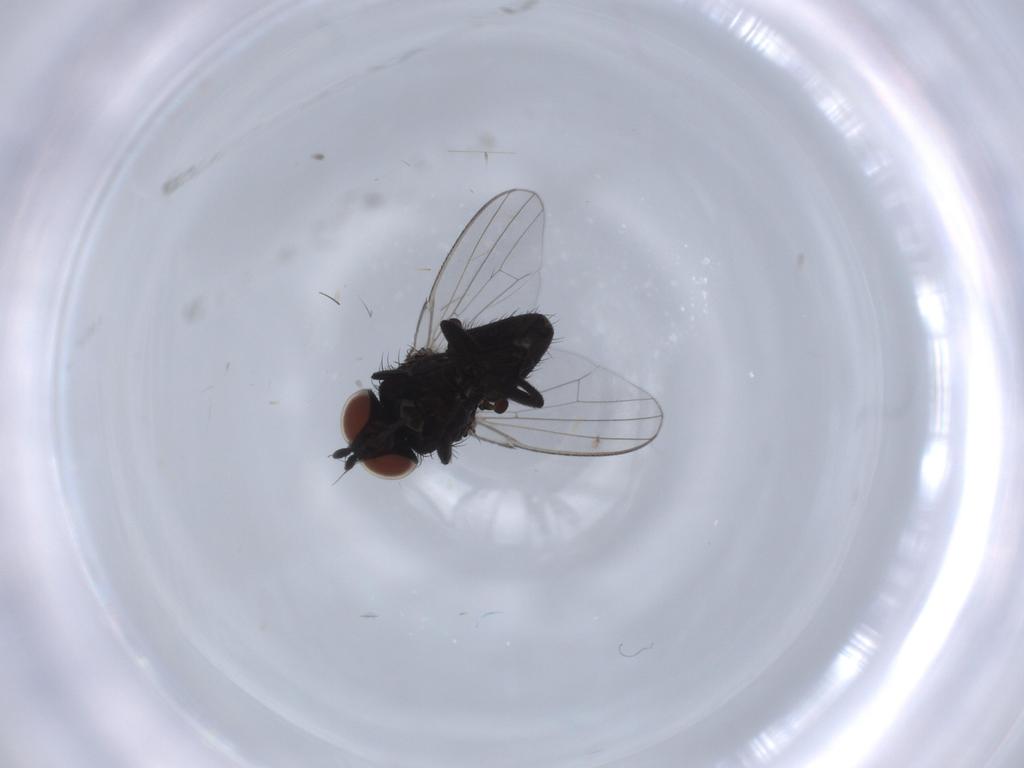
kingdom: Animalia
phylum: Arthropoda
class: Insecta
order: Diptera
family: Milichiidae
